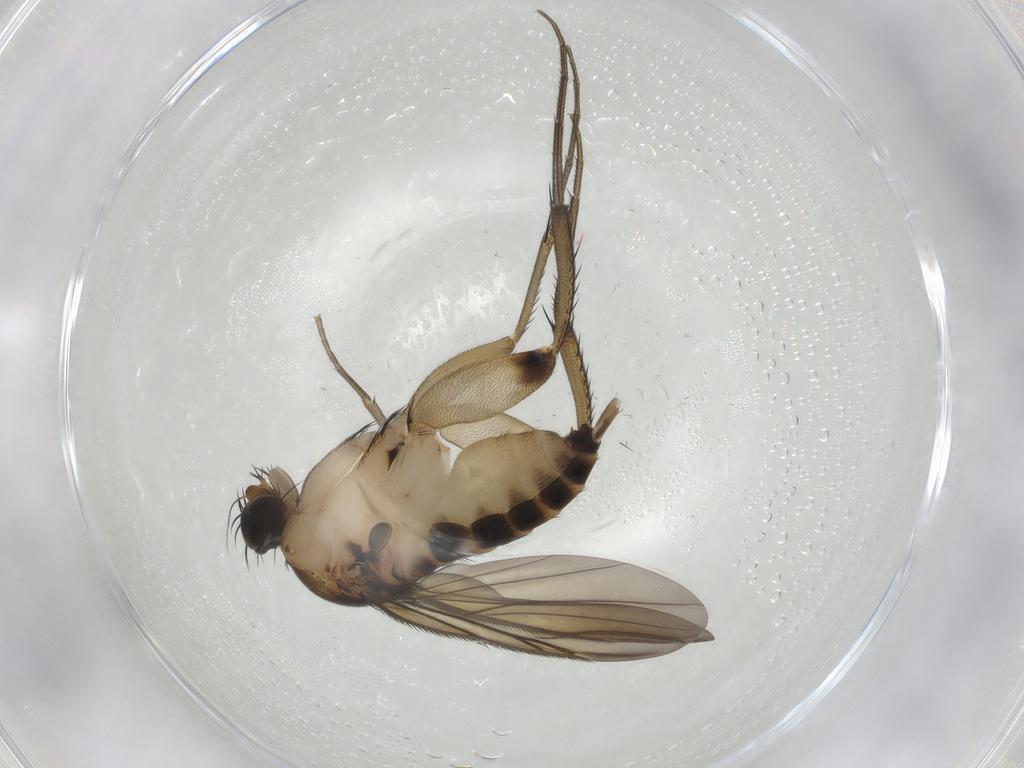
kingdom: Animalia
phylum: Arthropoda
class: Insecta
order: Diptera
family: Phoridae
